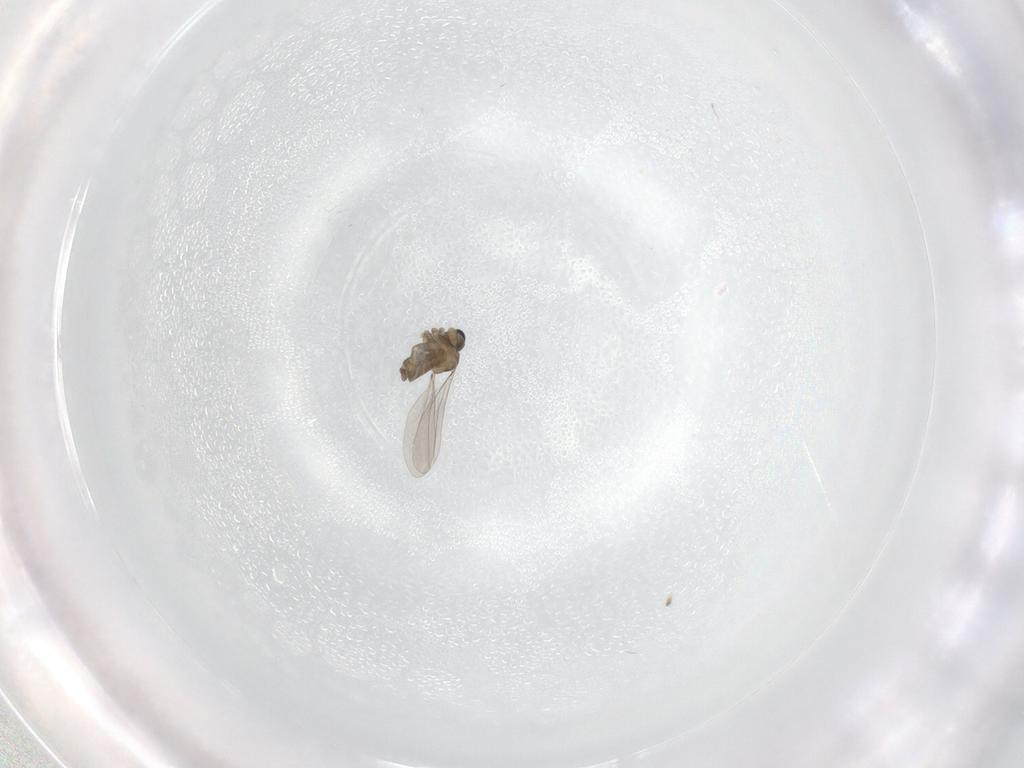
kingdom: Animalia
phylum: Arthropoda
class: Insecta
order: Diptera
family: Cecidomyiidae
